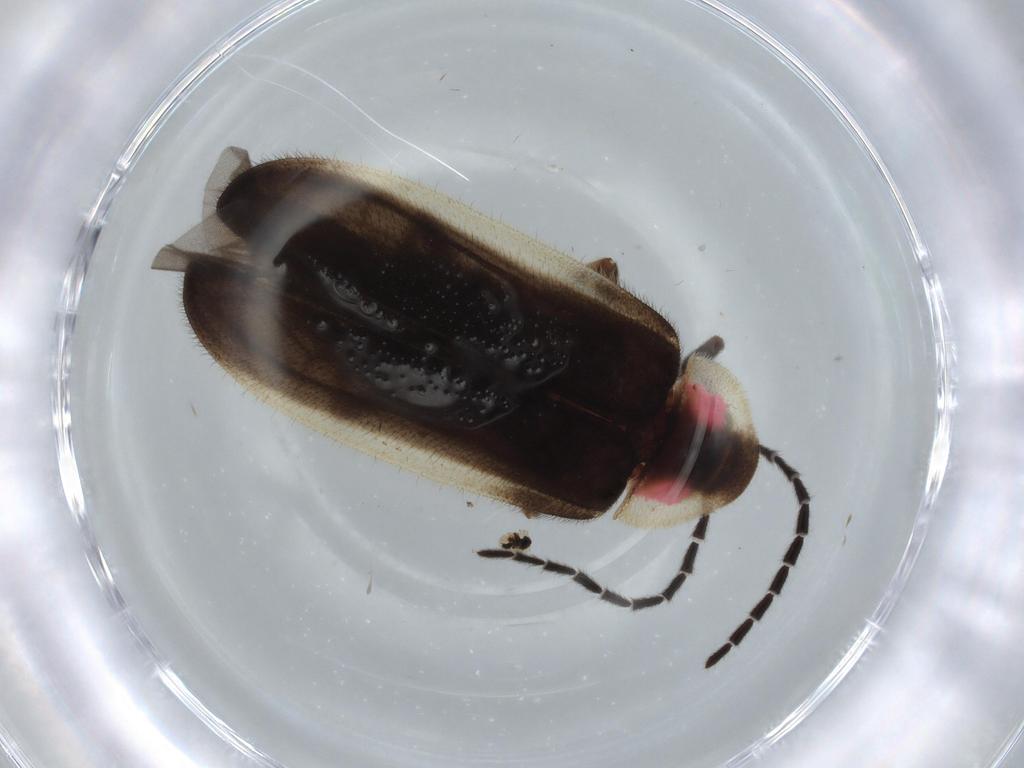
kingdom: Animalia
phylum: Arthropoda
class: Insecta
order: Coleoptera
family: Lampyridae
